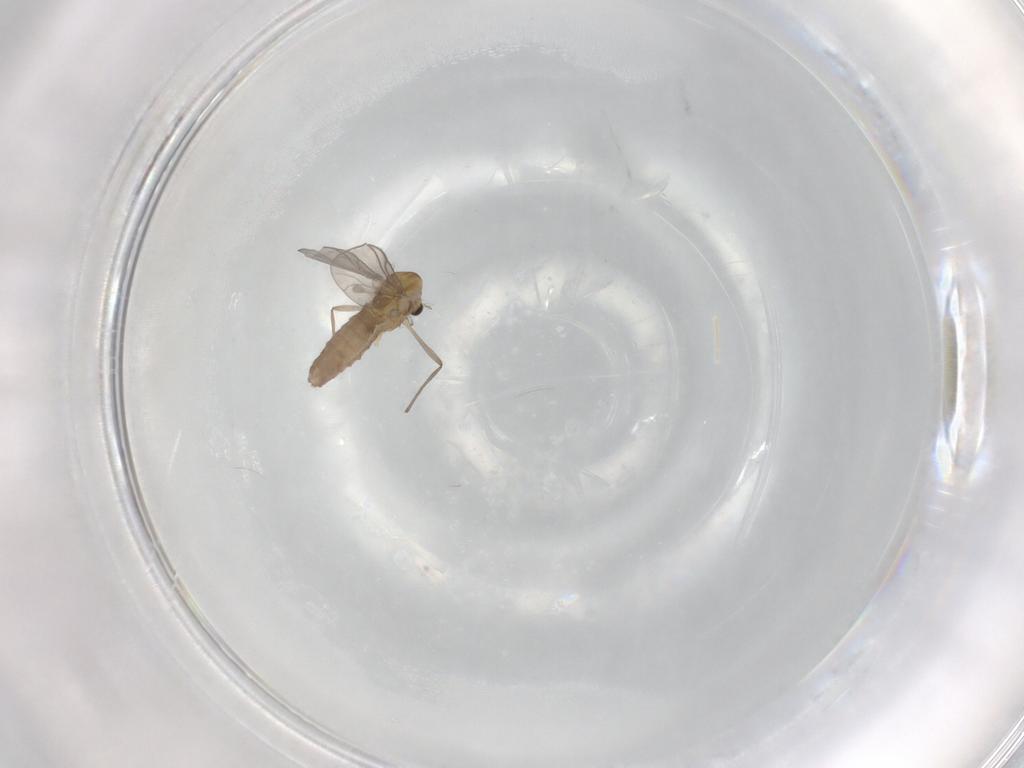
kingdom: Animalia
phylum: Arthropoda
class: Insecta
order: Diptera
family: Chironomidae
